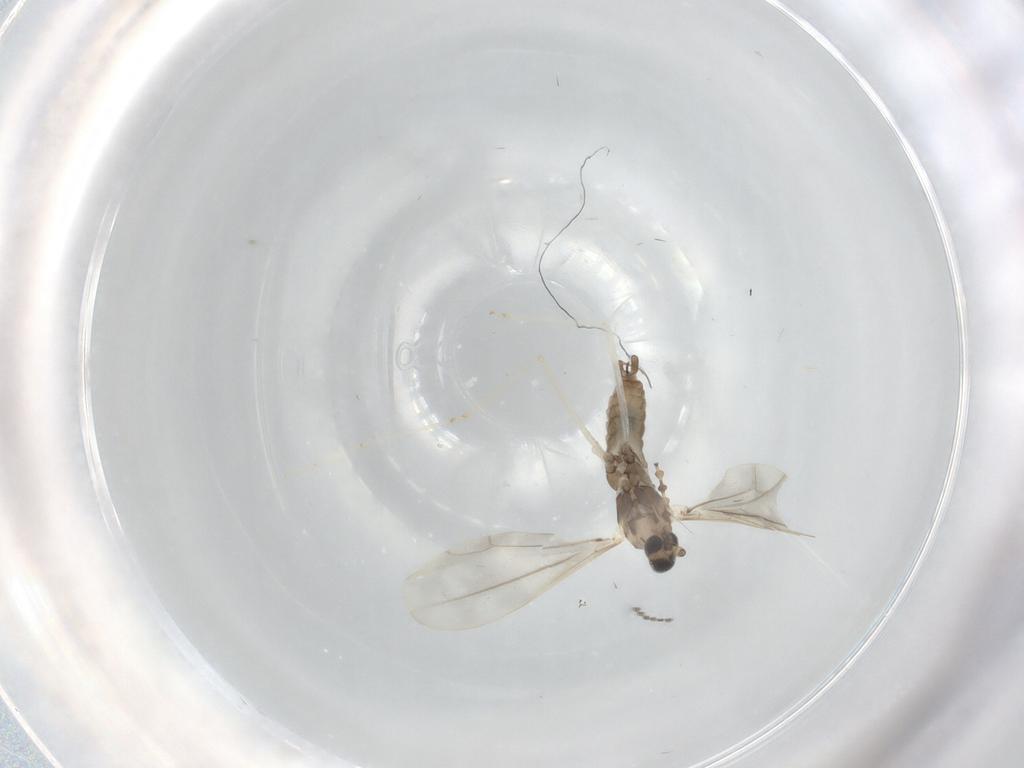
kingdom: Animalia
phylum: Arthropoda
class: Insecta
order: Diptera
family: Cecidomyiidae
